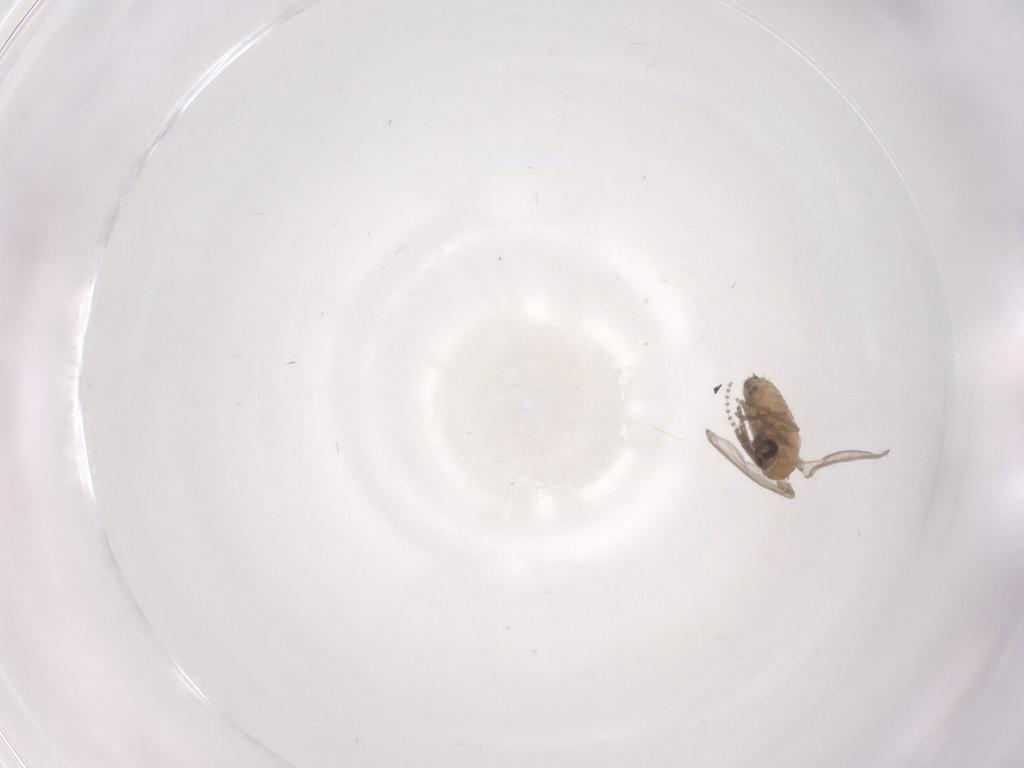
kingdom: Animalia
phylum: Arthropoda
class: Insecta
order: Diptera
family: Psychodidae
